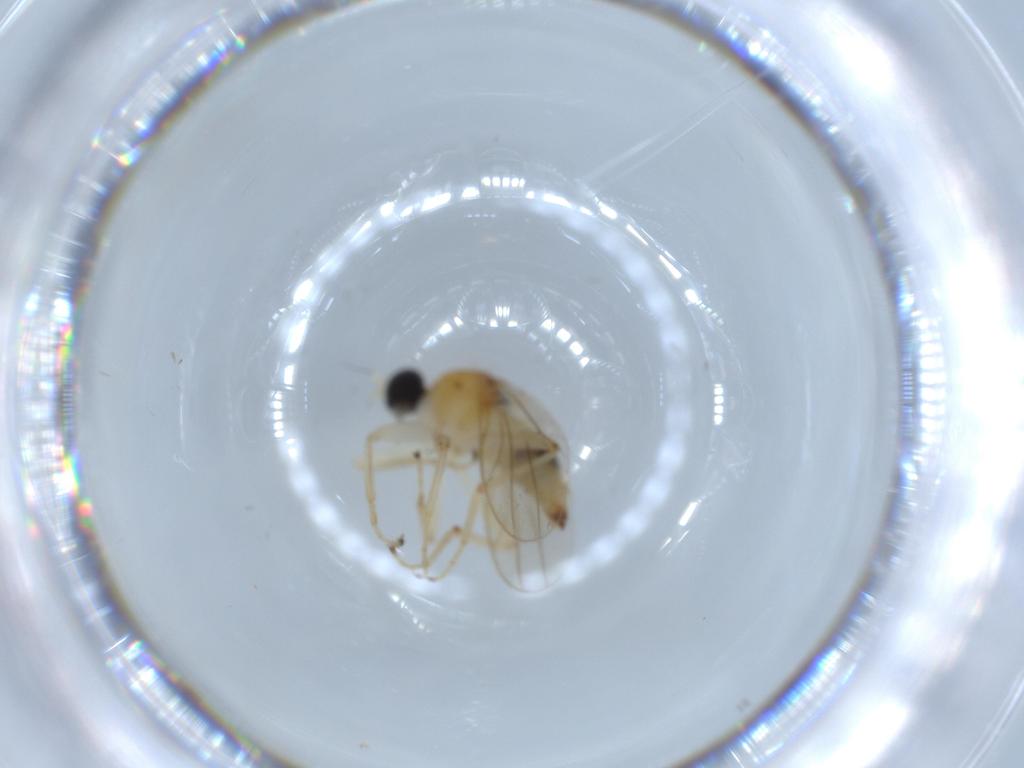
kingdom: Animalia
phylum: Arthropoda
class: Insecta
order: Diptera
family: Hybotidae
